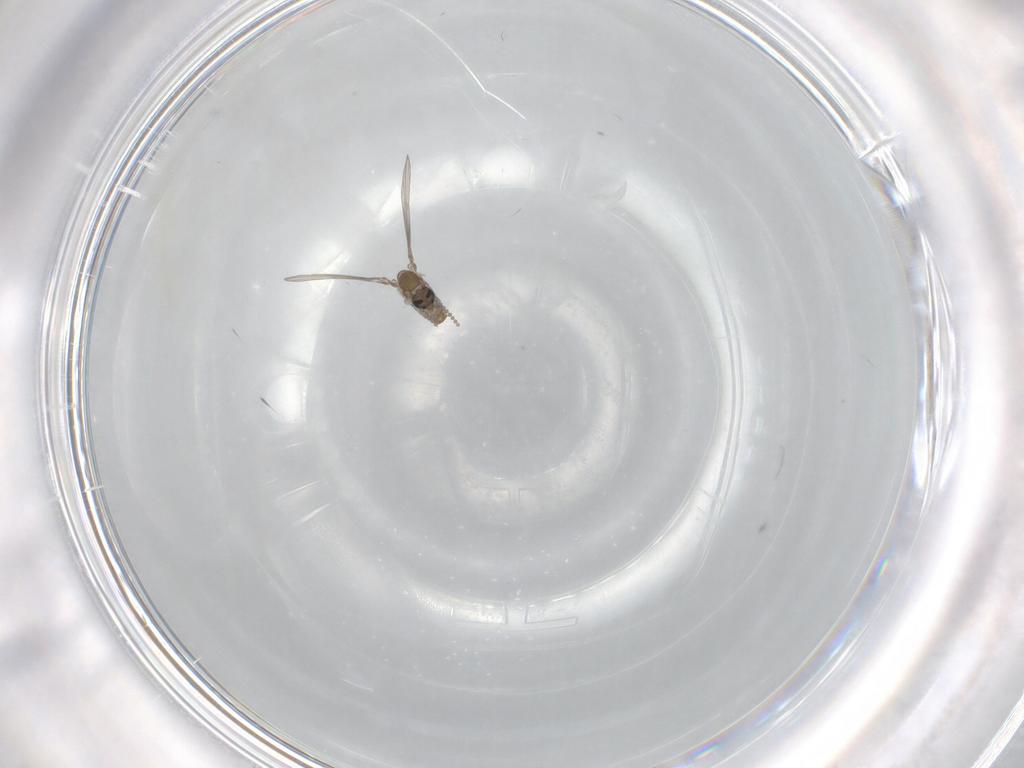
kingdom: Animalia
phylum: Arthropoda
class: Insecta
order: Diptera
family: Psychodidae
